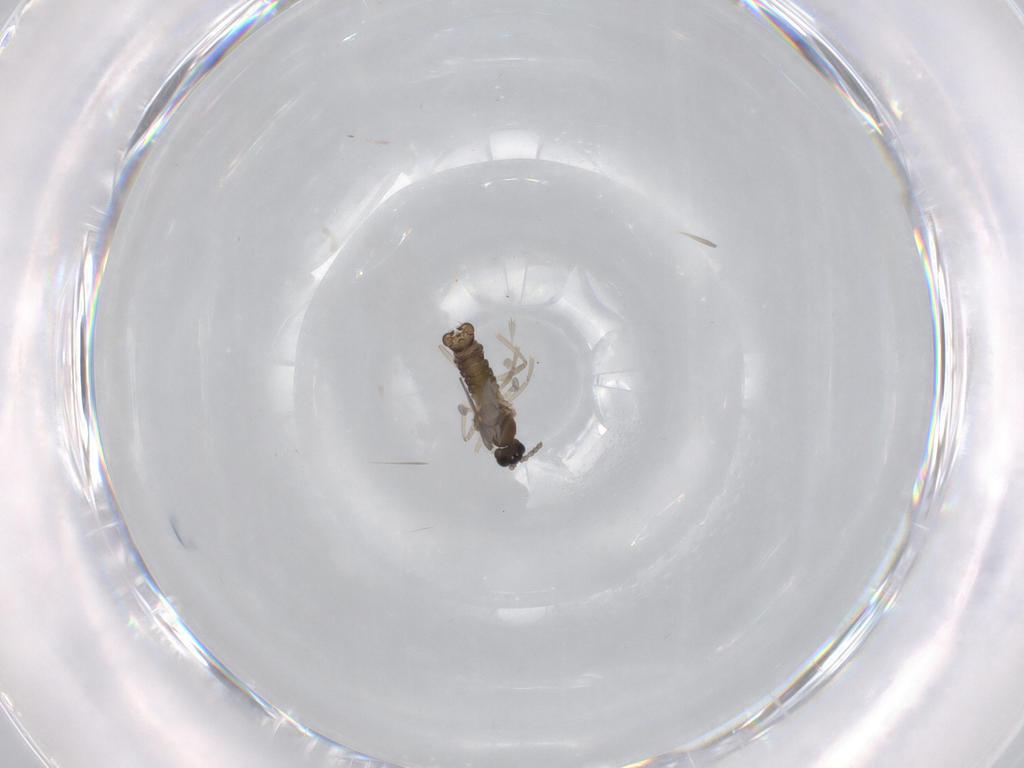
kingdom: Animalia
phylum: Arthropoda
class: Insecta
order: Diptera
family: Cecidomyiidae
